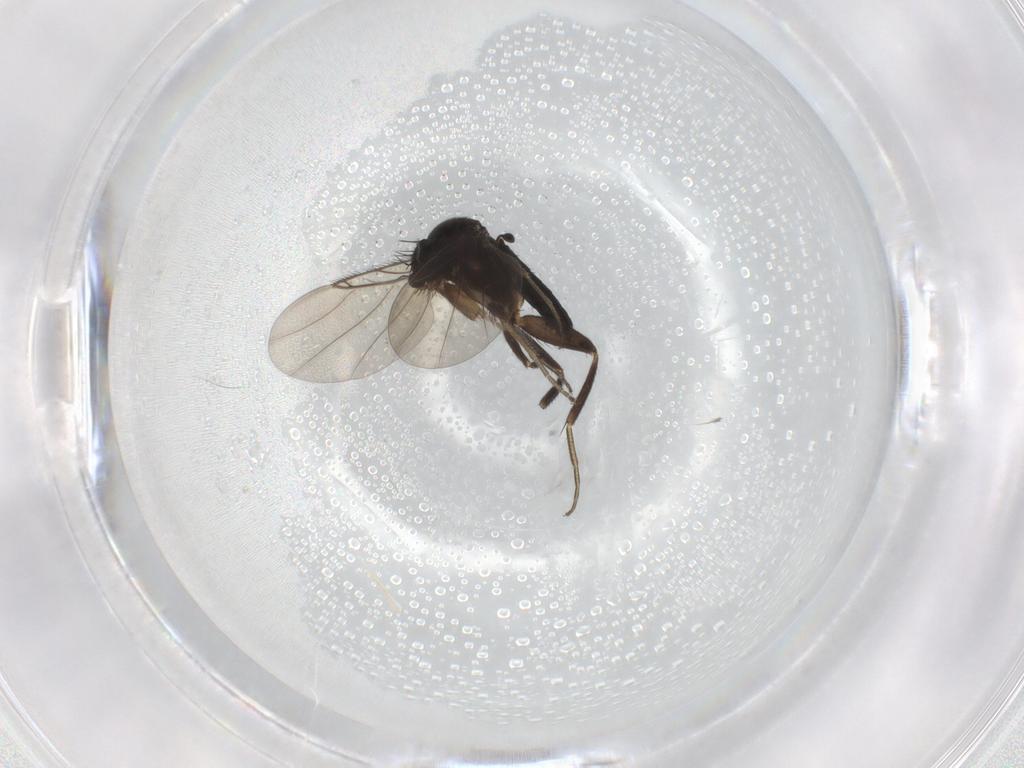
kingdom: Animalia
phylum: Arthropoda
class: Insecta
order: Diptera
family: Phoridae
